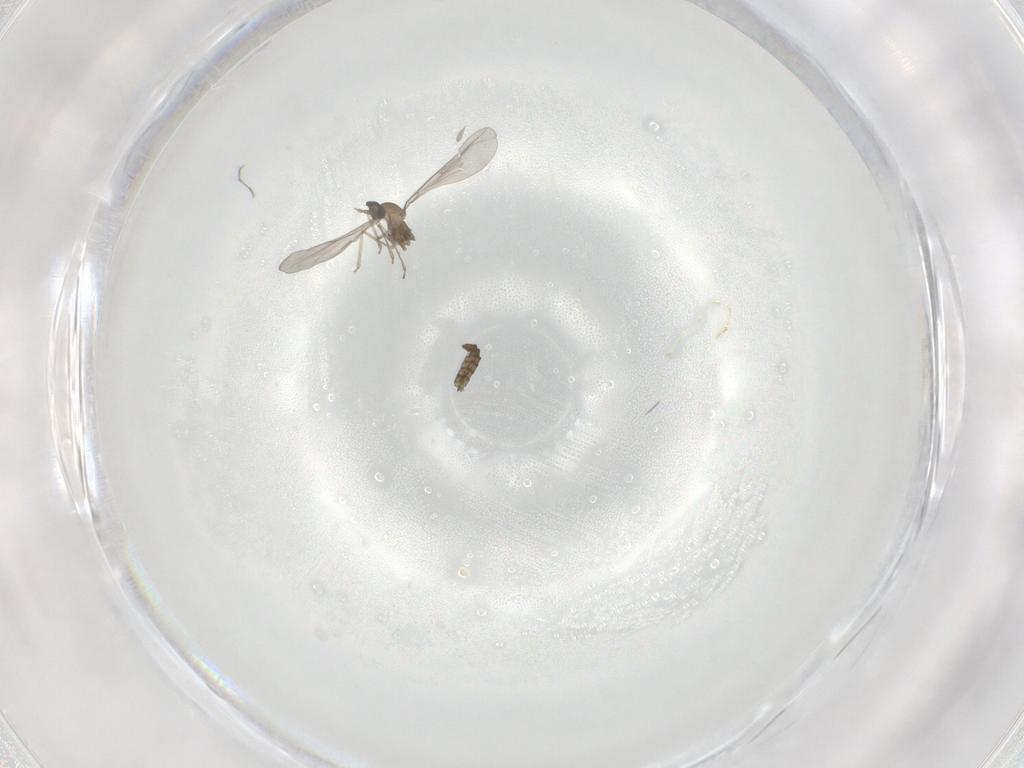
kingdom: Animalia
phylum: Arthropoda
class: Insecta
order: Diptera
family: Cecidomyiidae
